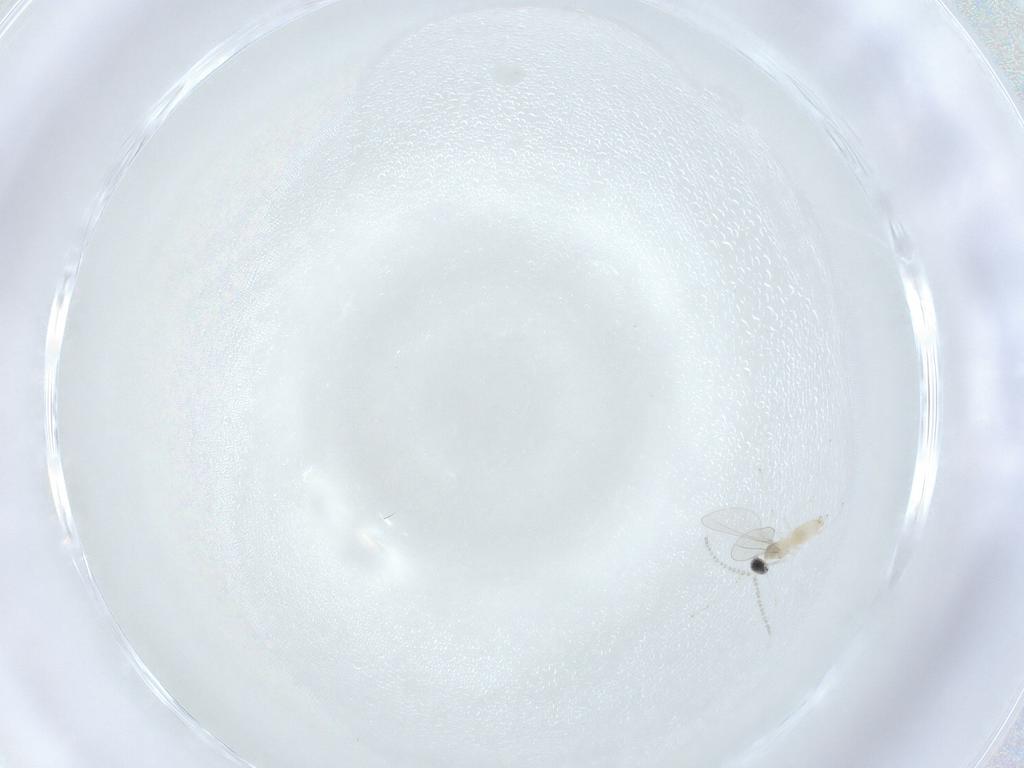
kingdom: Animalia
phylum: Arthropoda
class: Insecta
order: Diptera
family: Cecidomyiidae
